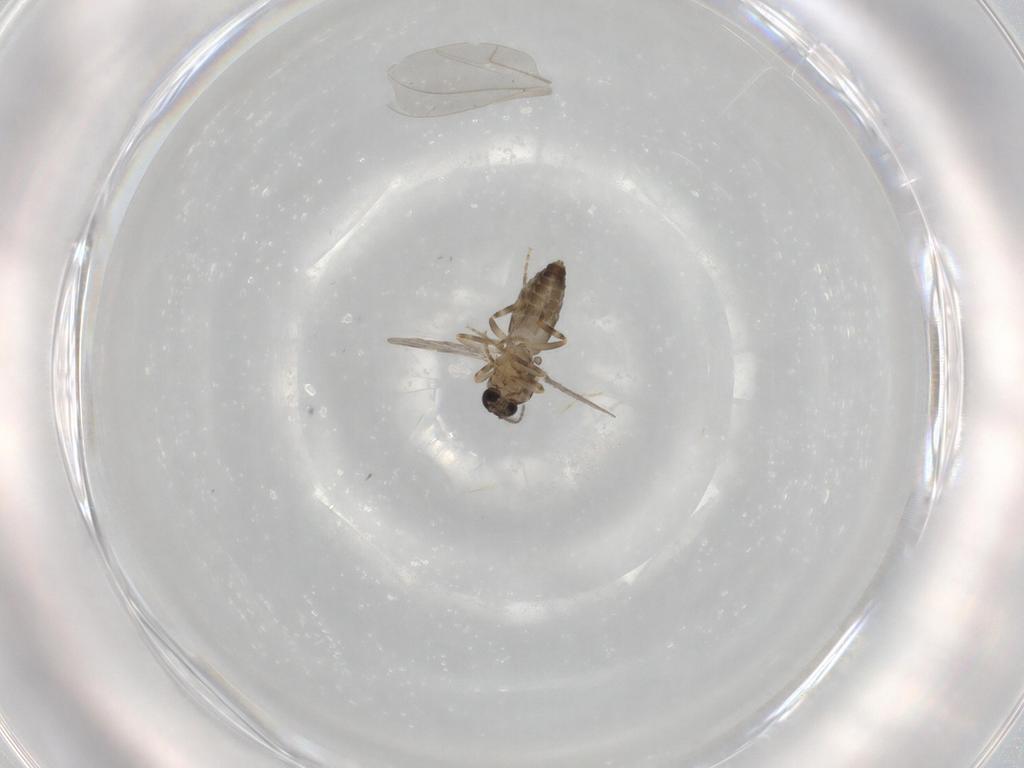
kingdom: Animalia
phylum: Arthropoda
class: Insecta
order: Diptera
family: Ceratopogonidae
